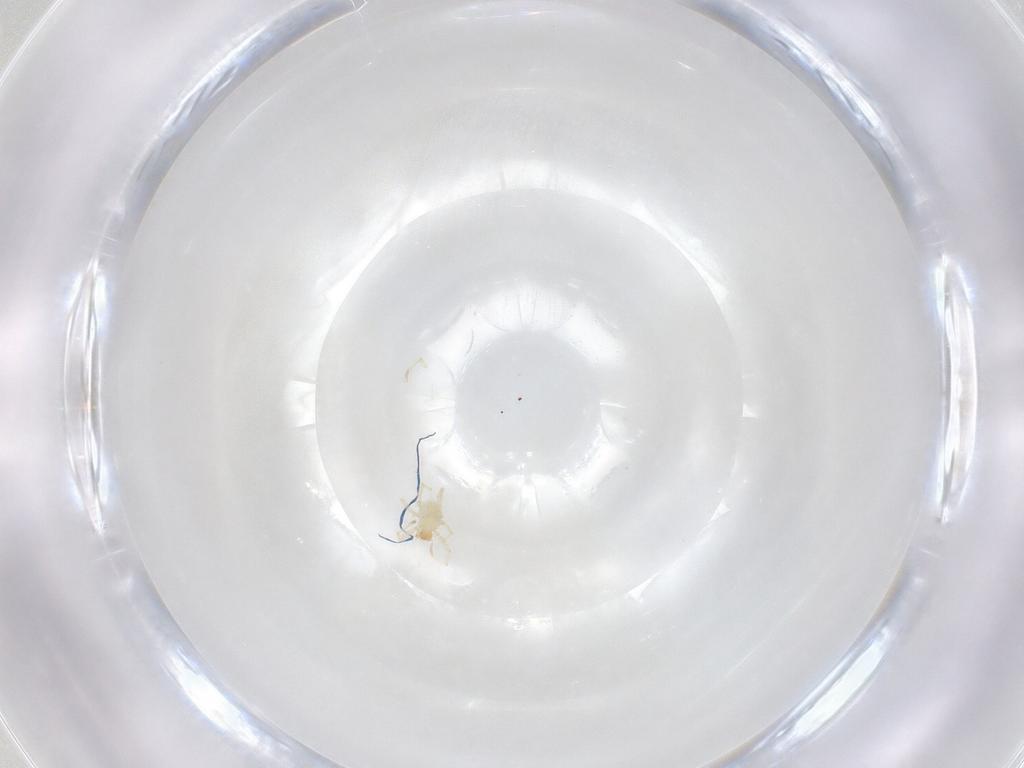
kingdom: Animalia
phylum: Arthropoda
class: Arachnida
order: Trombidiformes
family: Erythraeidae
